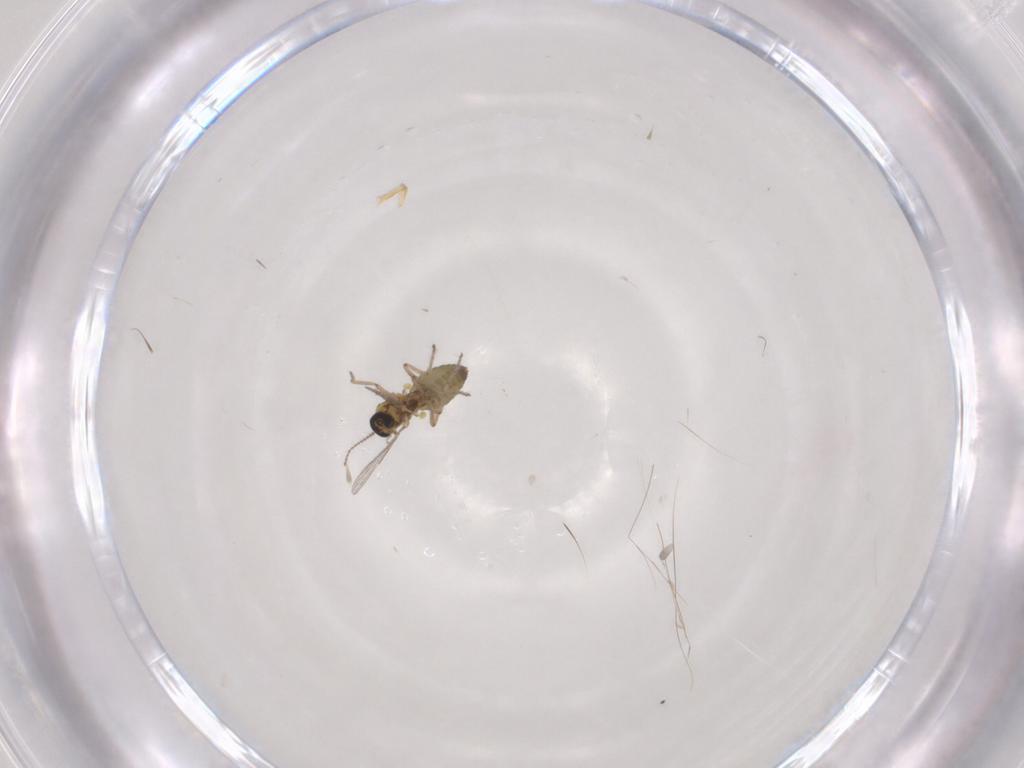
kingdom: Animalia
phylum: Arthropoda
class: Insecta
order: Diptera
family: Ceratopogonidae
